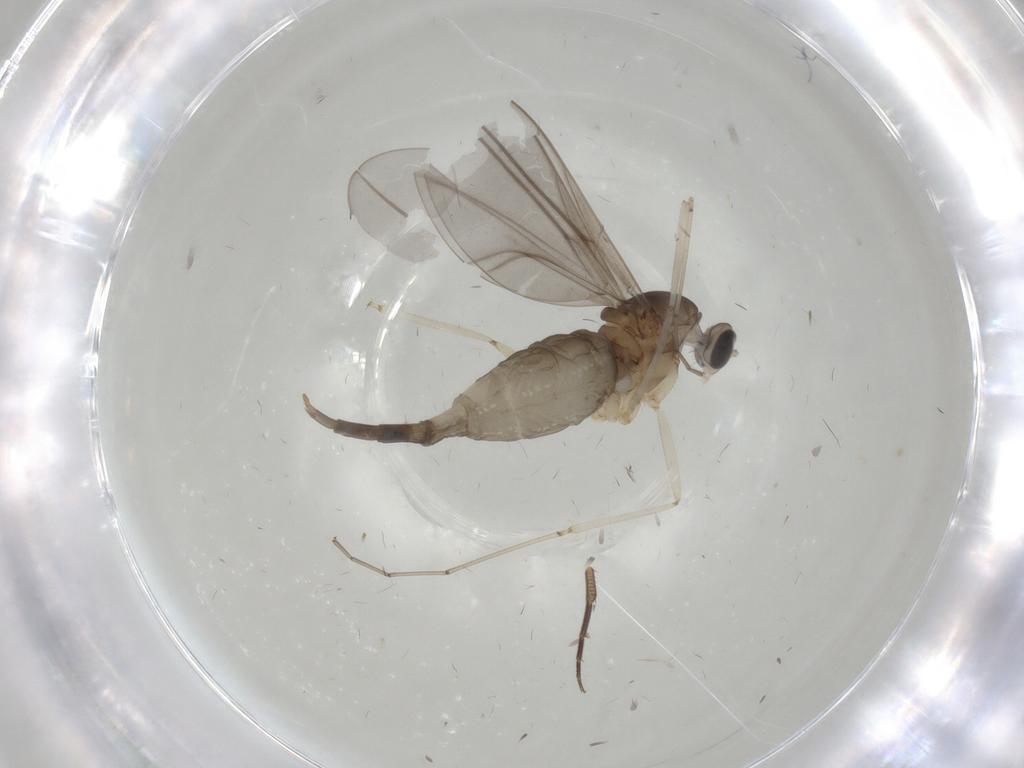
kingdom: Animalia
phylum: Arthropoda
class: Insecta
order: Diptera
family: Cecidomyiidae
